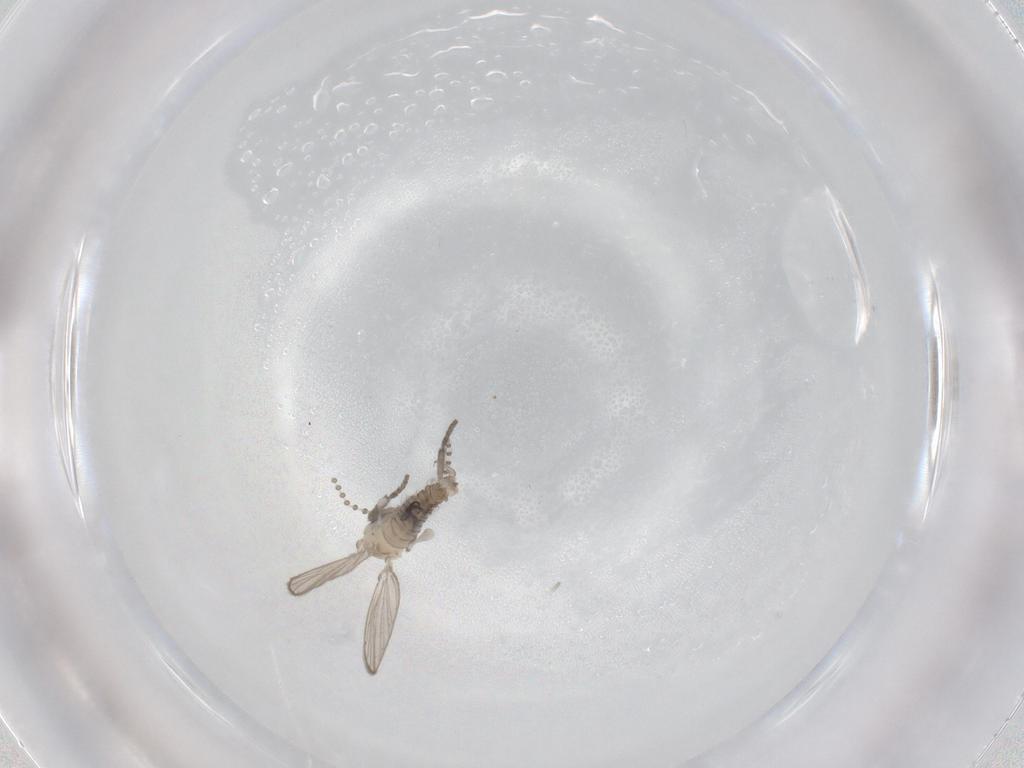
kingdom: Animalia
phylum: Arthropoda
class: Insecta
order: Diptera
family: Psychodidae
